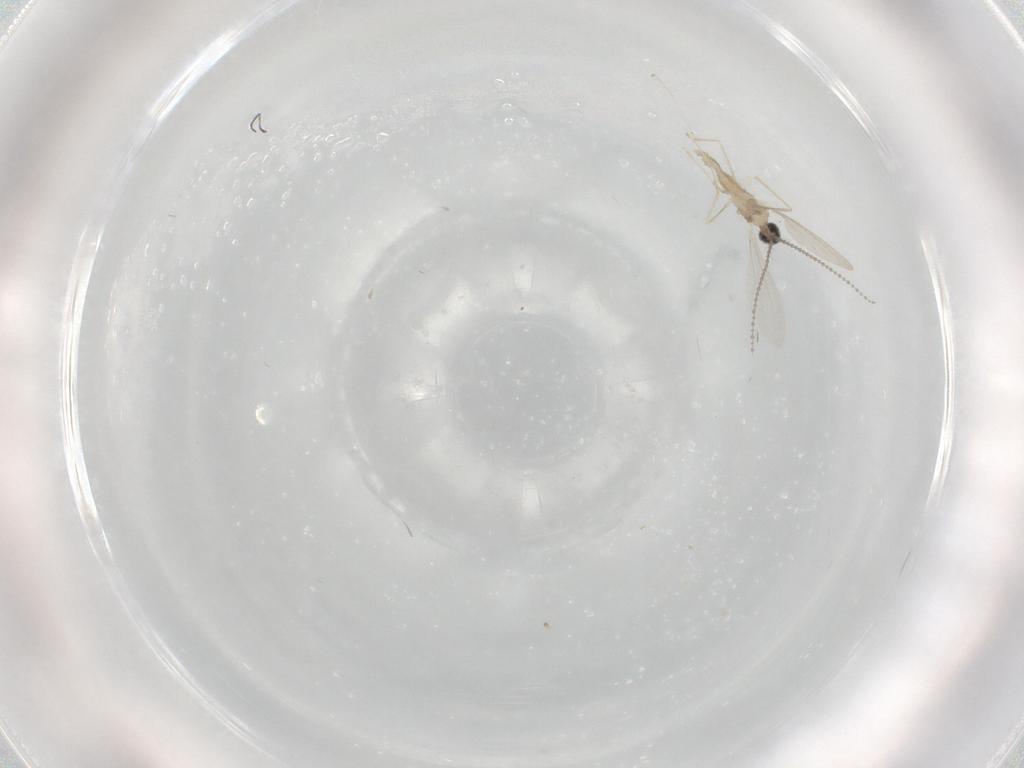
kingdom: Animalia
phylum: Arthropoda
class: Insecta
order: Diptera
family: Cecidomyiidae
